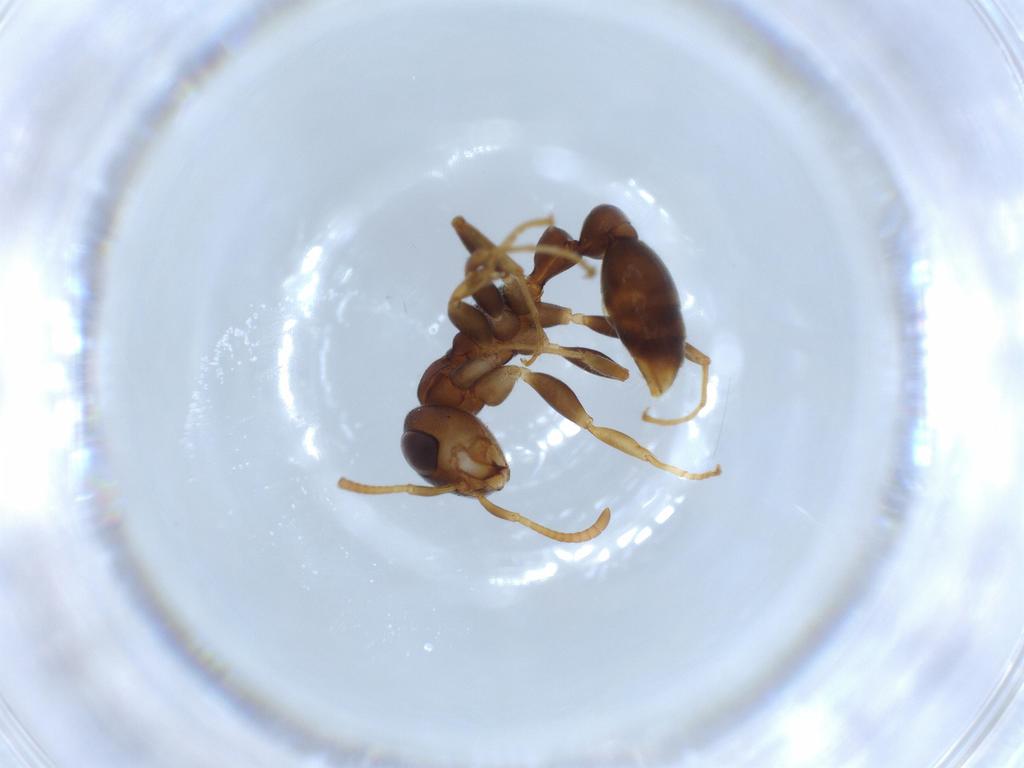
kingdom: Animalia
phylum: Arthropoda
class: Insecta
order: Hymenoptera
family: Formicidae
